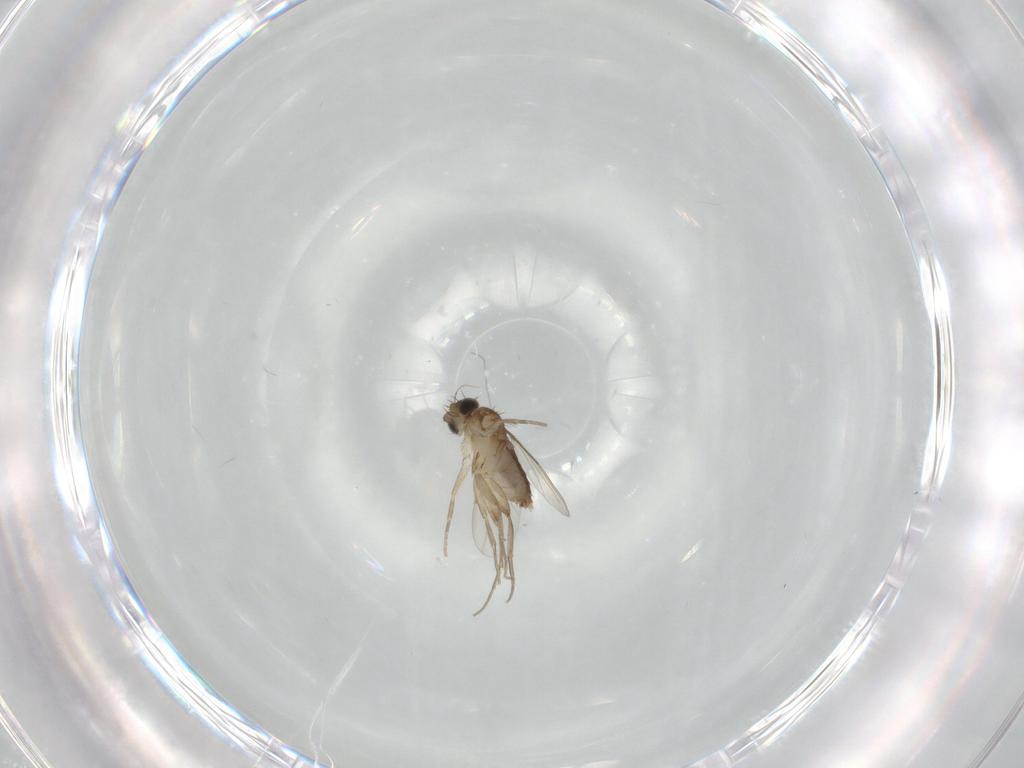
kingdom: Animalia
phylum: Arthropoda
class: Insecta
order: Diptera
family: Phoridae
